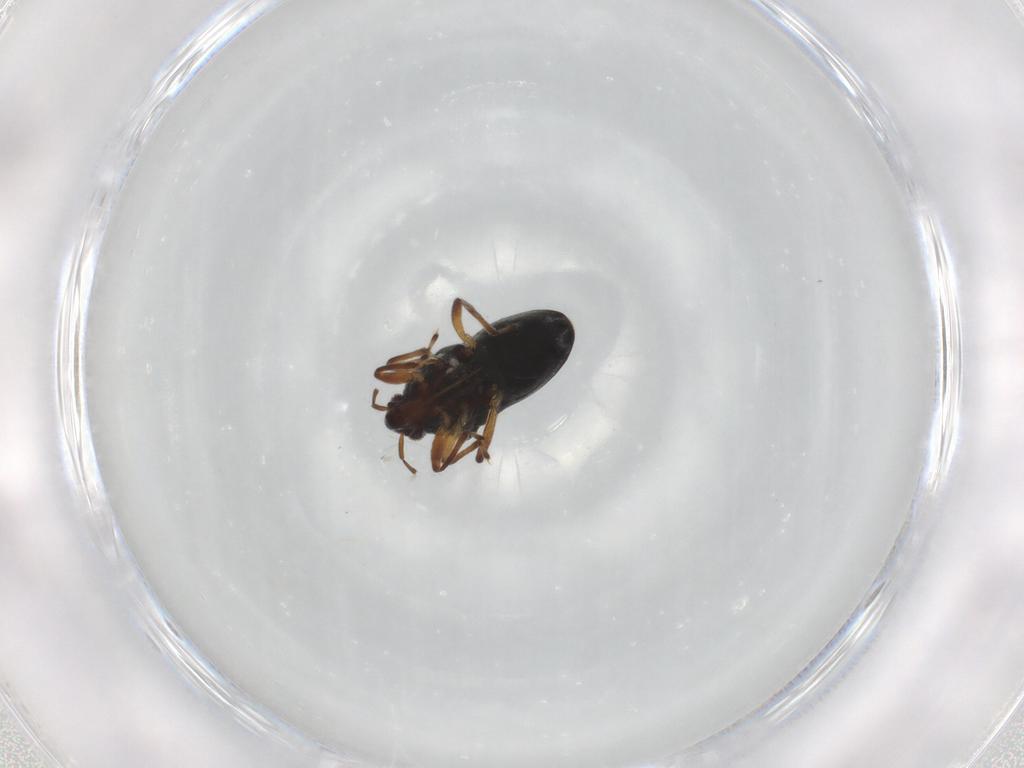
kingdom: Animalia
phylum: Arthropoda
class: Insecta
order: Hemiptera
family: Hebridae
